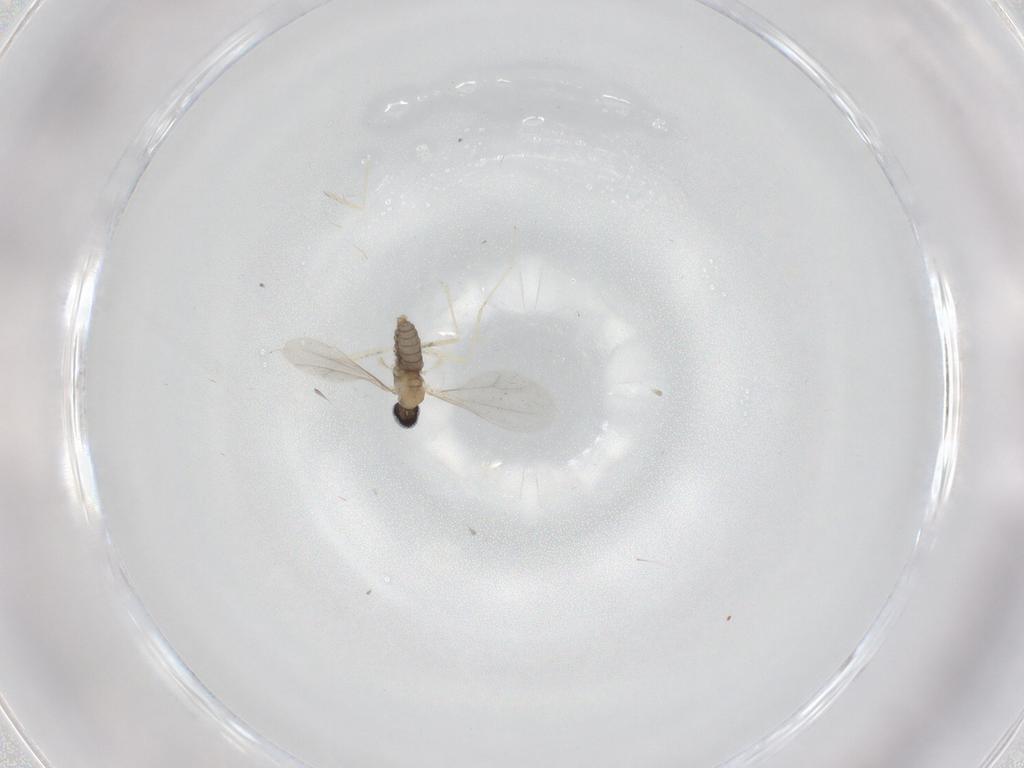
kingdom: Animalia
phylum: Arthropoda
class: Insecta
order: Diptera
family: Cecidomyiidae
